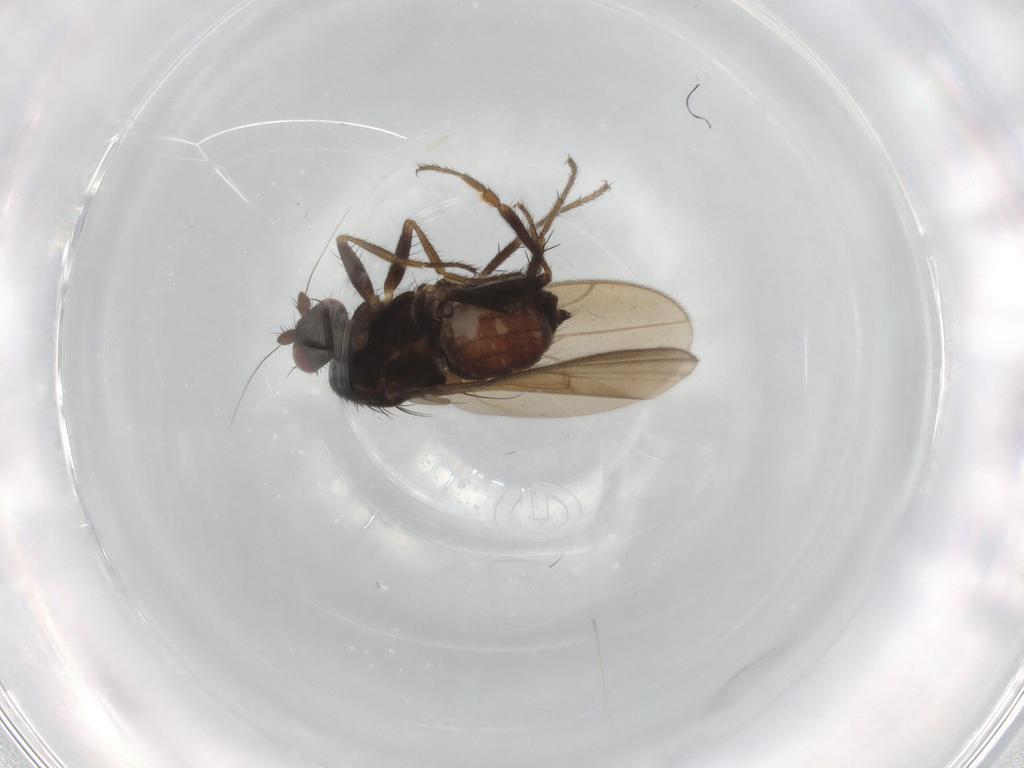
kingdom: Animalia
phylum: Arthropoda
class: Insecta
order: Diptera
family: Sphaeroceridae
